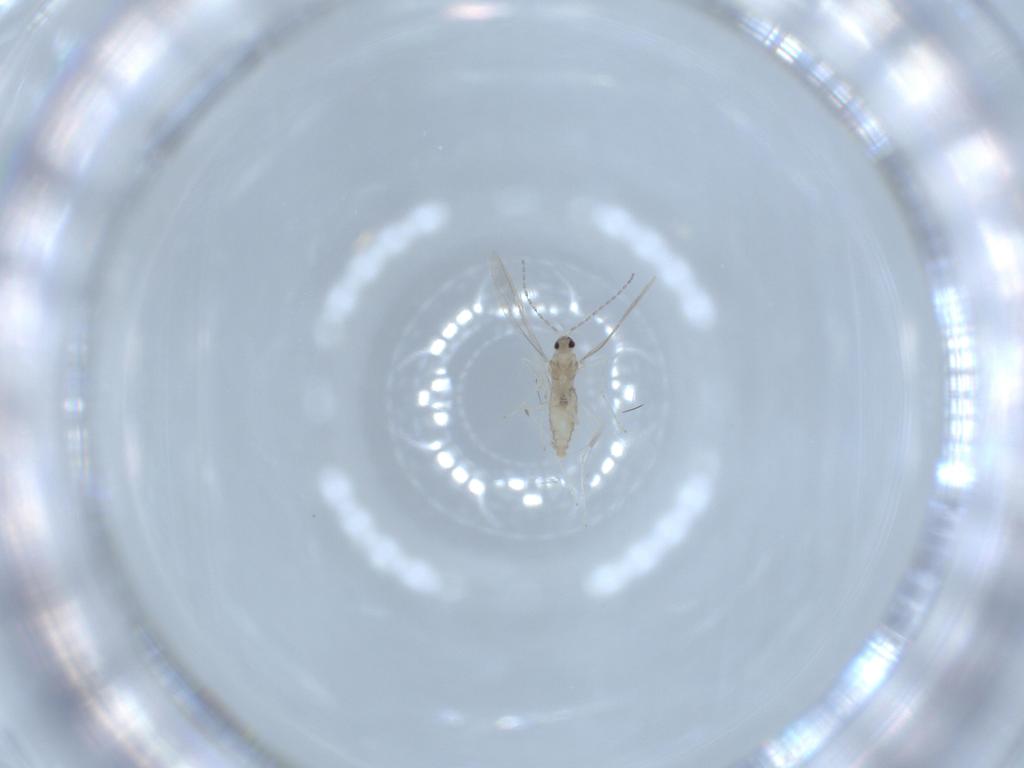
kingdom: Animalia
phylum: Arthropoda
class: Insecta
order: Diptera
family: Cecidomyiidae
